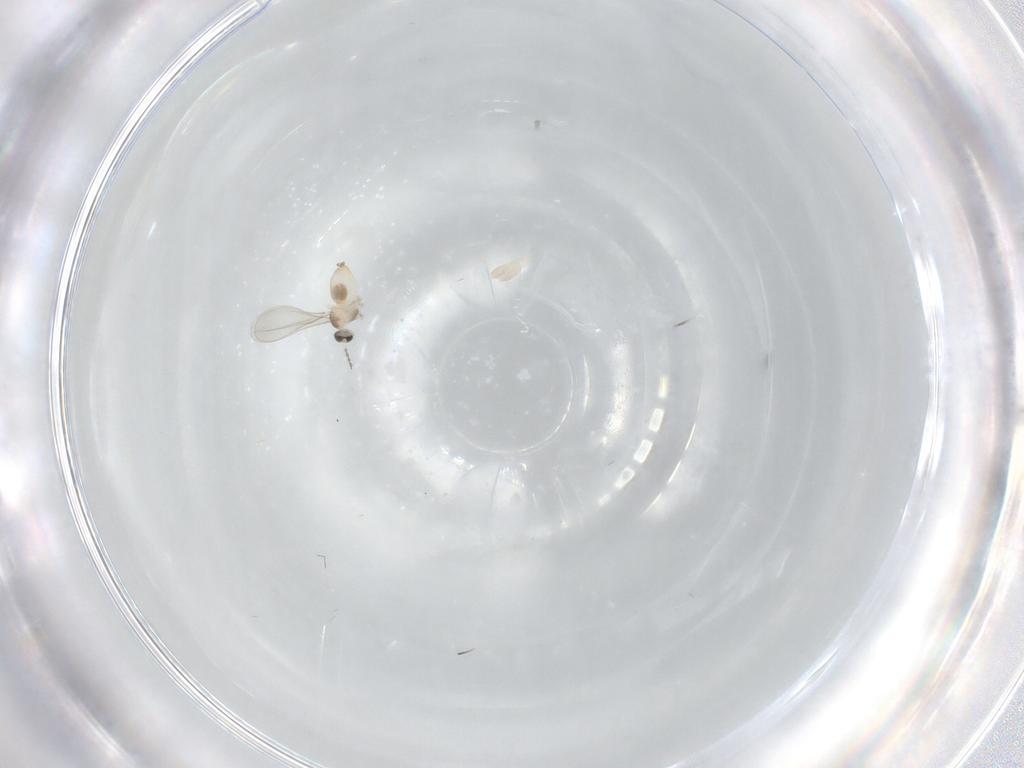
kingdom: Animalia
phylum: Arthropoda
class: Insecta
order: Diptera
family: Cecidomyiidae
